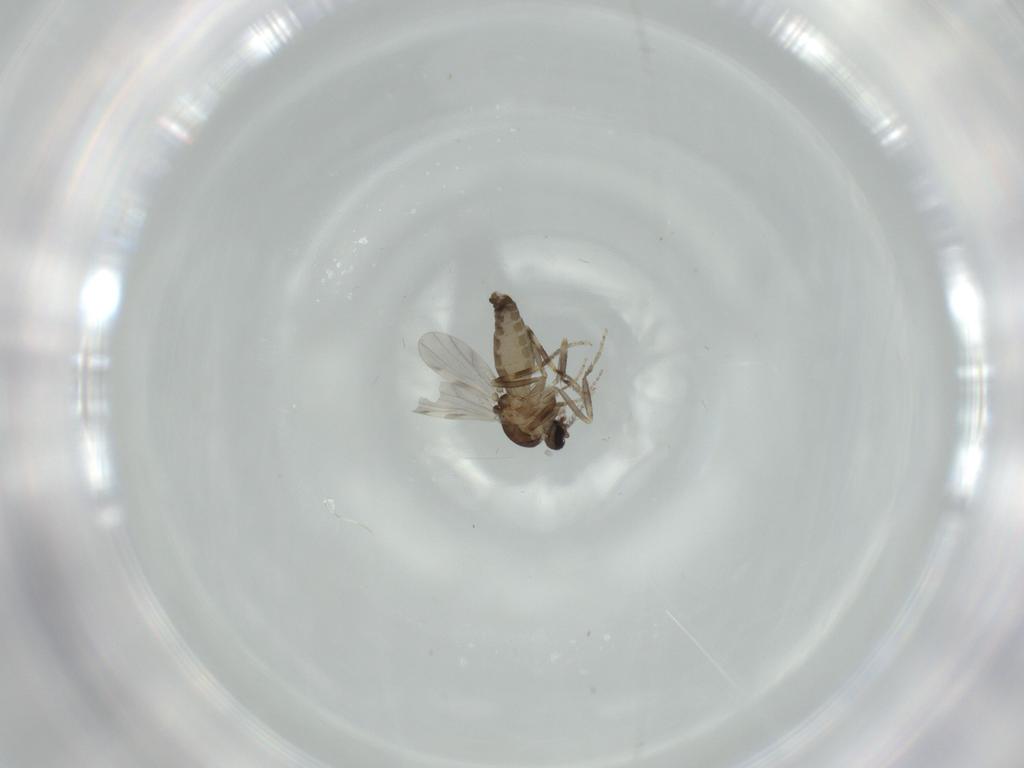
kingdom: Animalia
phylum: Arthropoda
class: Insecta
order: Diptera
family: Ceratopogonidae
